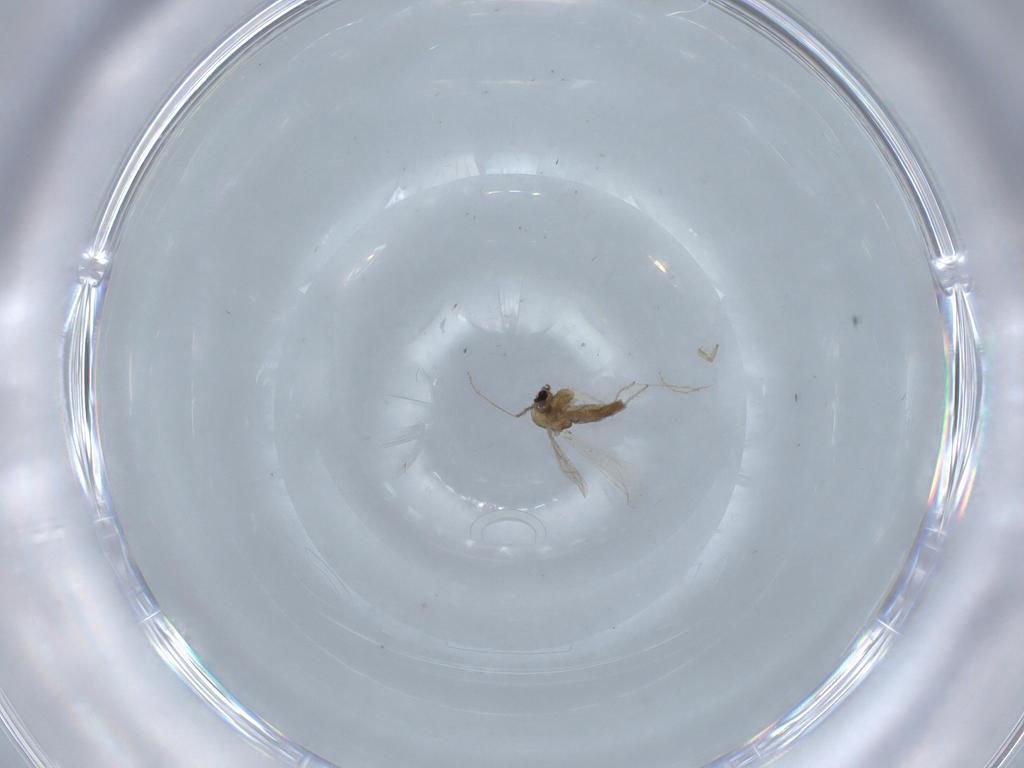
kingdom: Animalia
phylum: Arthropoda
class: Insecta
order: Diptera
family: Chironomidae
